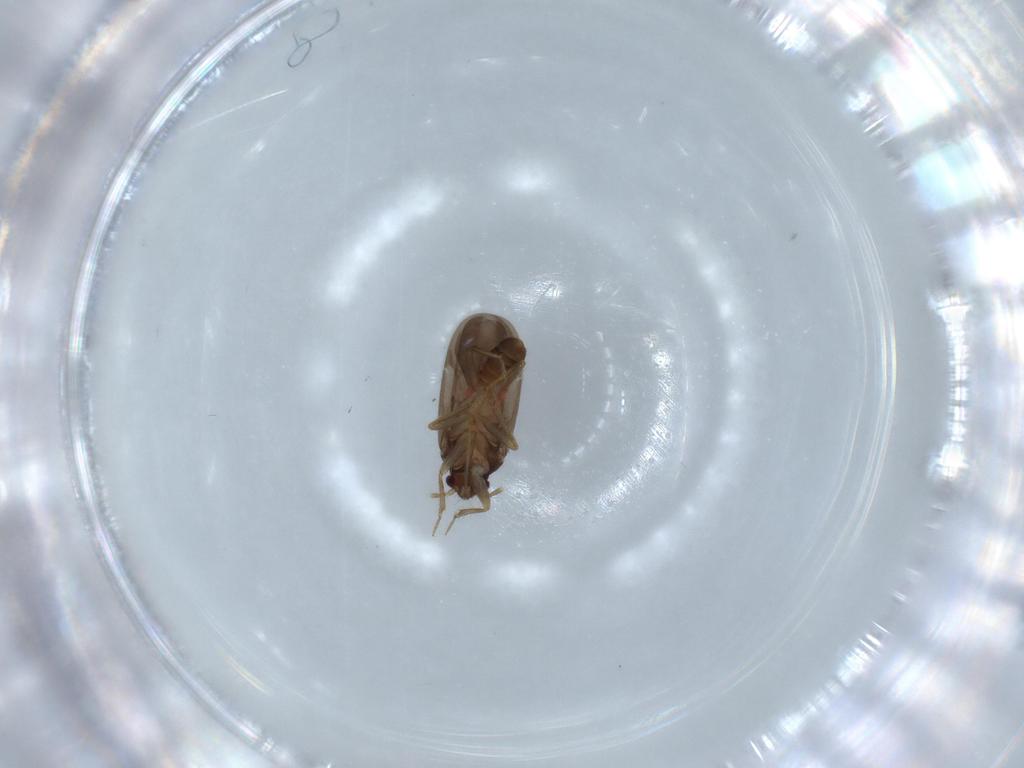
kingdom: Animalia
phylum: Arthropoda
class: Insecta
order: Hemiptera
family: Ceratocombidae
